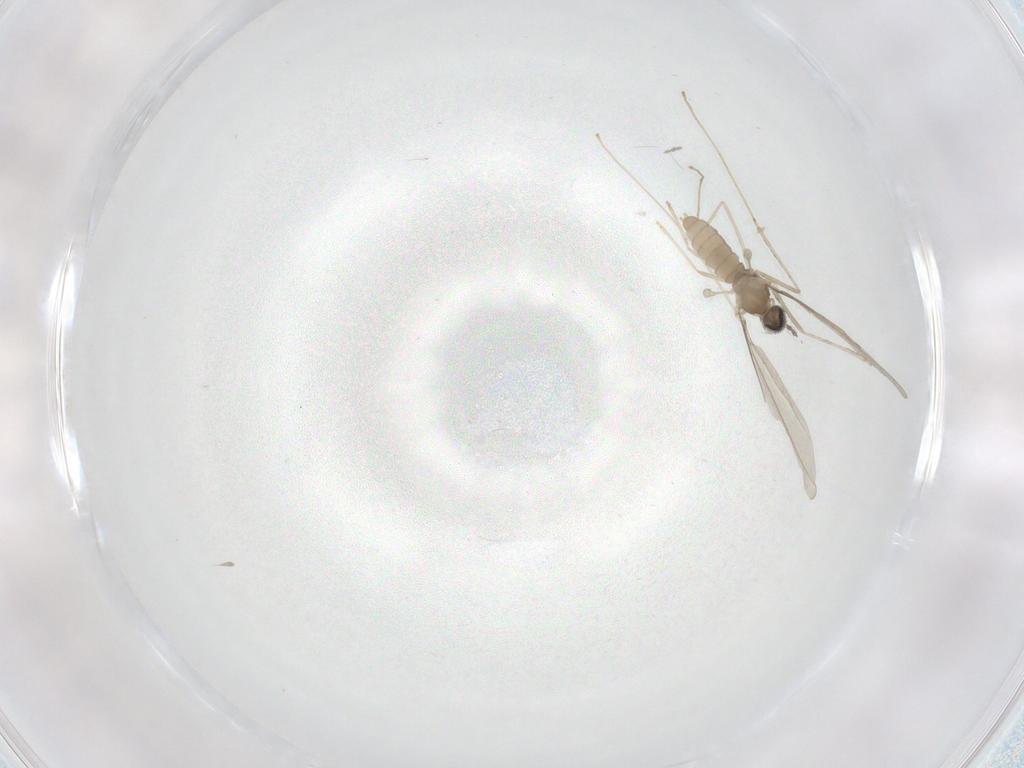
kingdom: Animalia
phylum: Arthropoda
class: Insecta
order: Diptera
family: Cecidomyiidae
